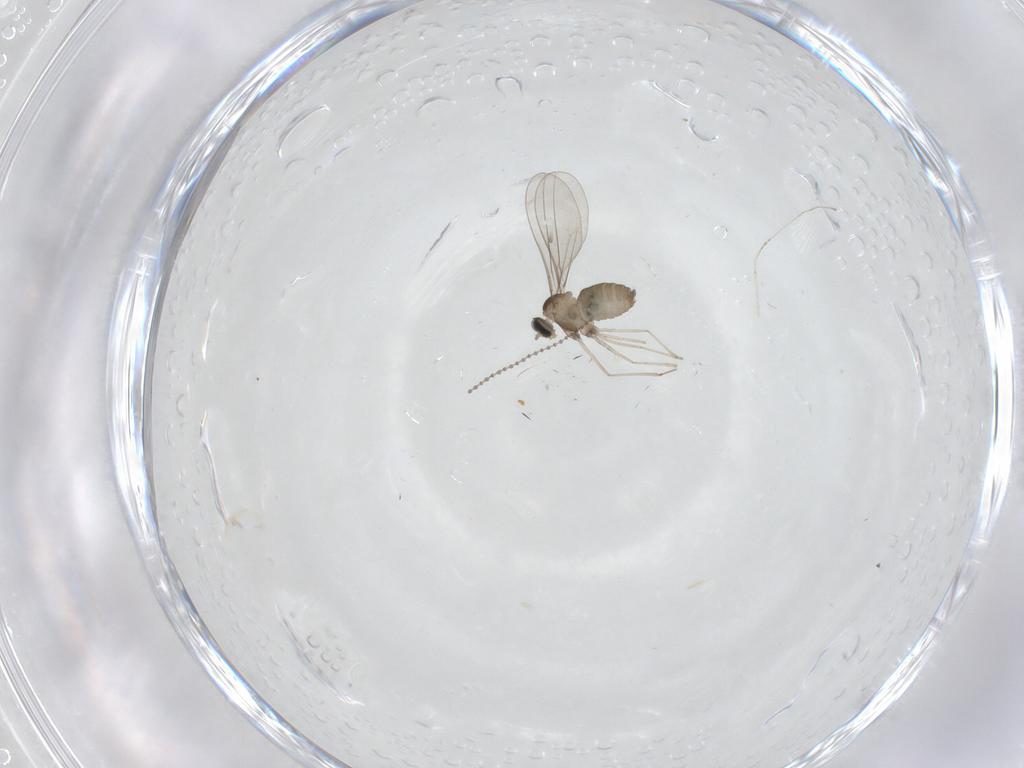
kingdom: Animalia
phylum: Arthropoda
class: Insecta
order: Diptera
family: Cecidomyiidae
